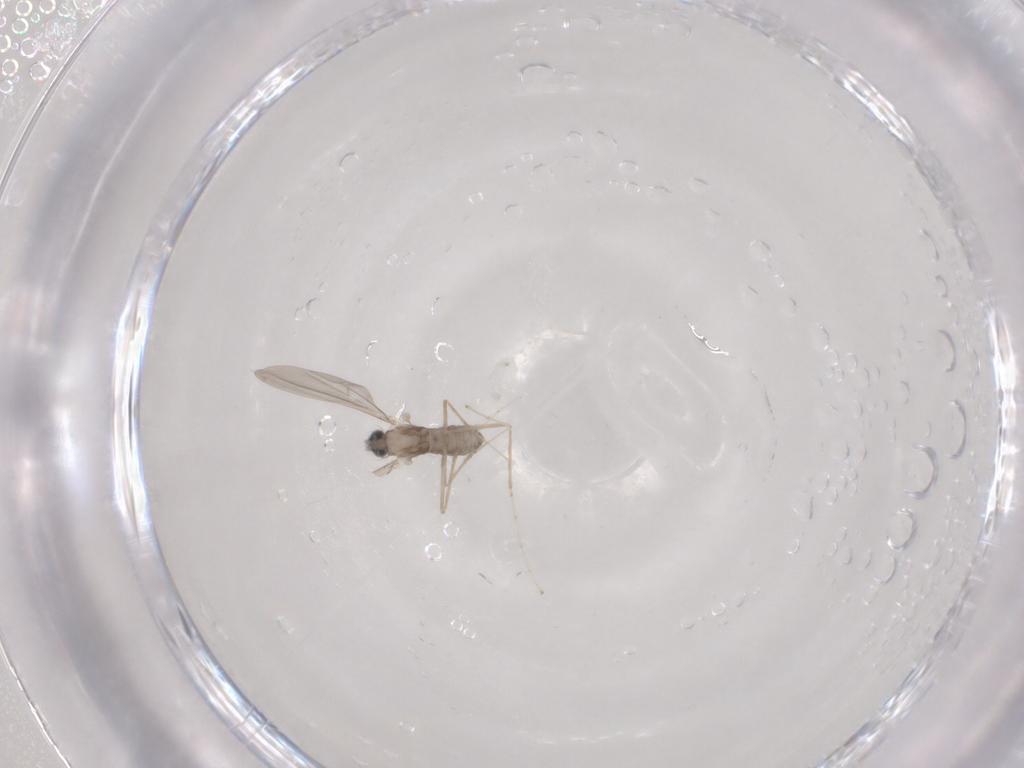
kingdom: Animalia
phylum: Arthropoda
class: Insecta
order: Diptera
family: Cecidomyiidae
